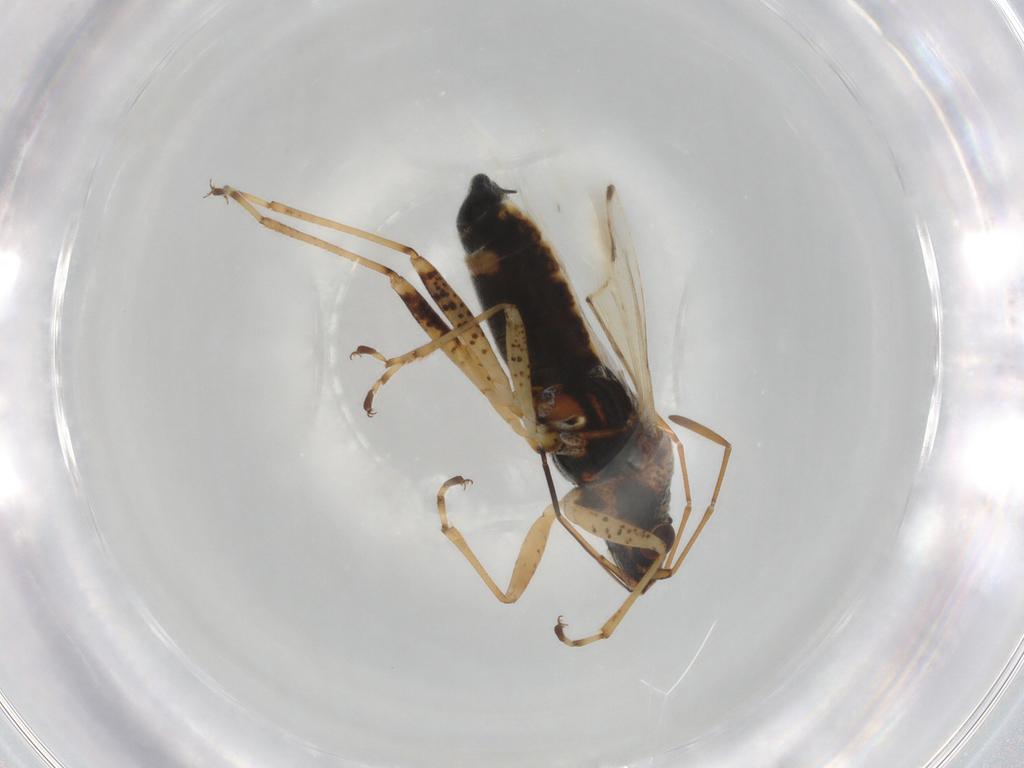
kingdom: Animalia
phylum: Arthropoda
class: Insecta
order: Hemiptera
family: Lygaeidae
